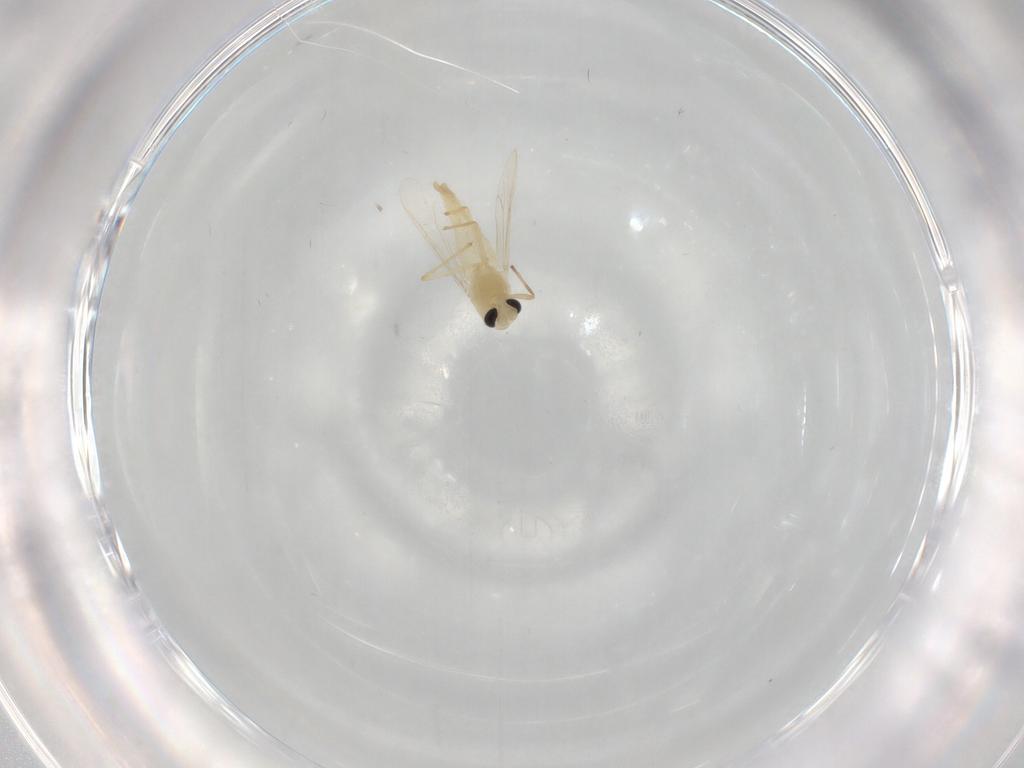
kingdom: Animalia
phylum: Arthropoda
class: Insecta
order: Diptera
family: Chironomidae
